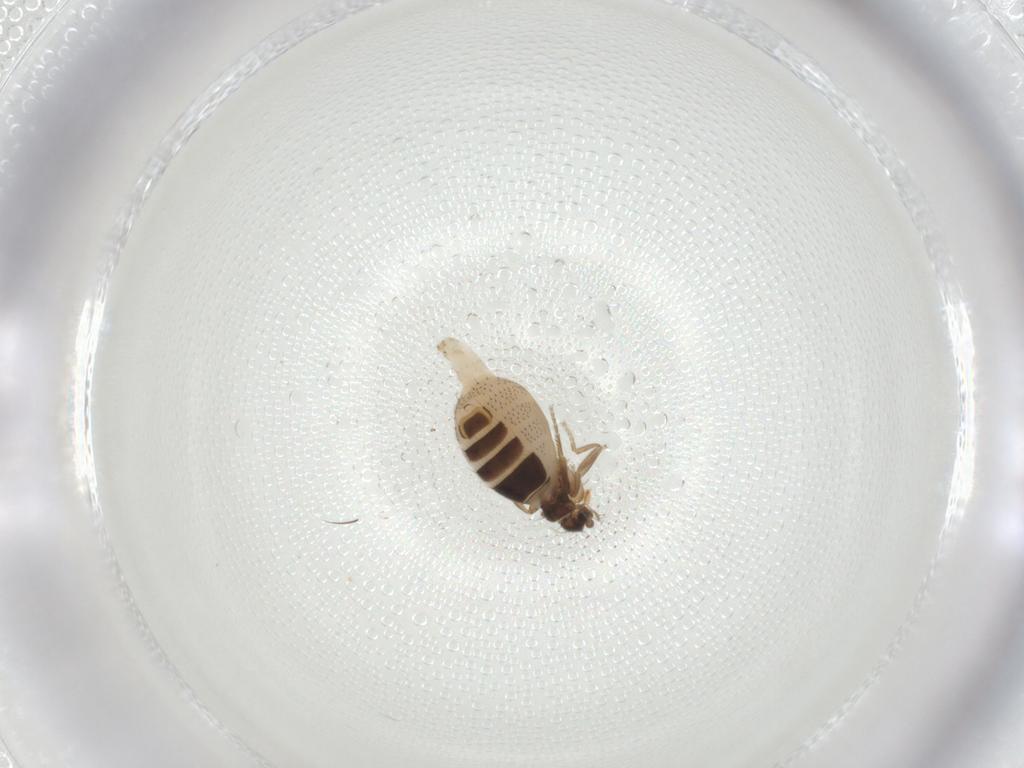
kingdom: Animalia
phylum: Arthropoda
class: Insecta
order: Diptera
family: Phoridae
